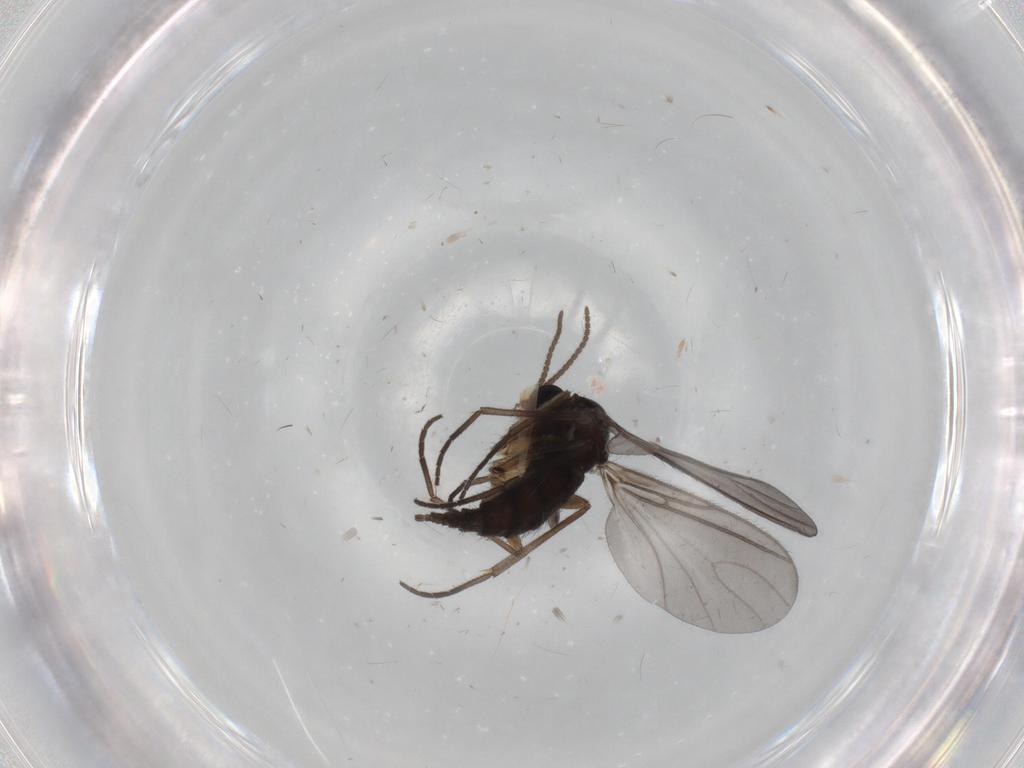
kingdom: Animalia
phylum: Arthropoda
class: Insecta
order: Diptera
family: Sciaridae
